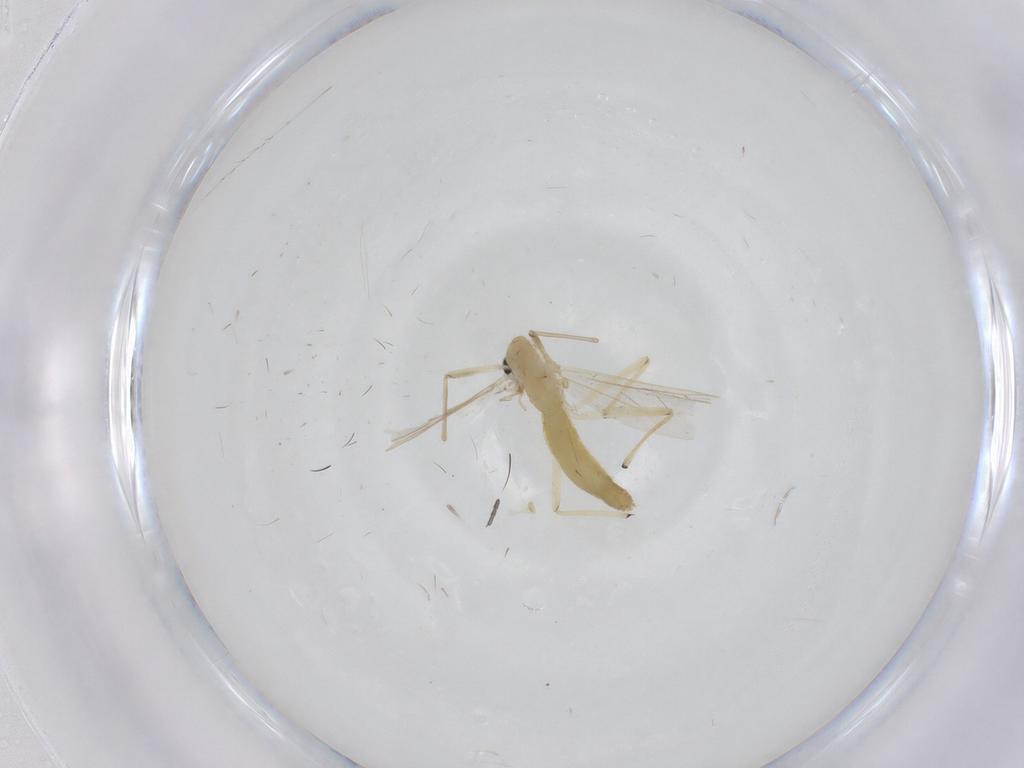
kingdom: Animalia
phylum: Arthropoda
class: Insecta
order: Diptera
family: Chironomidae
